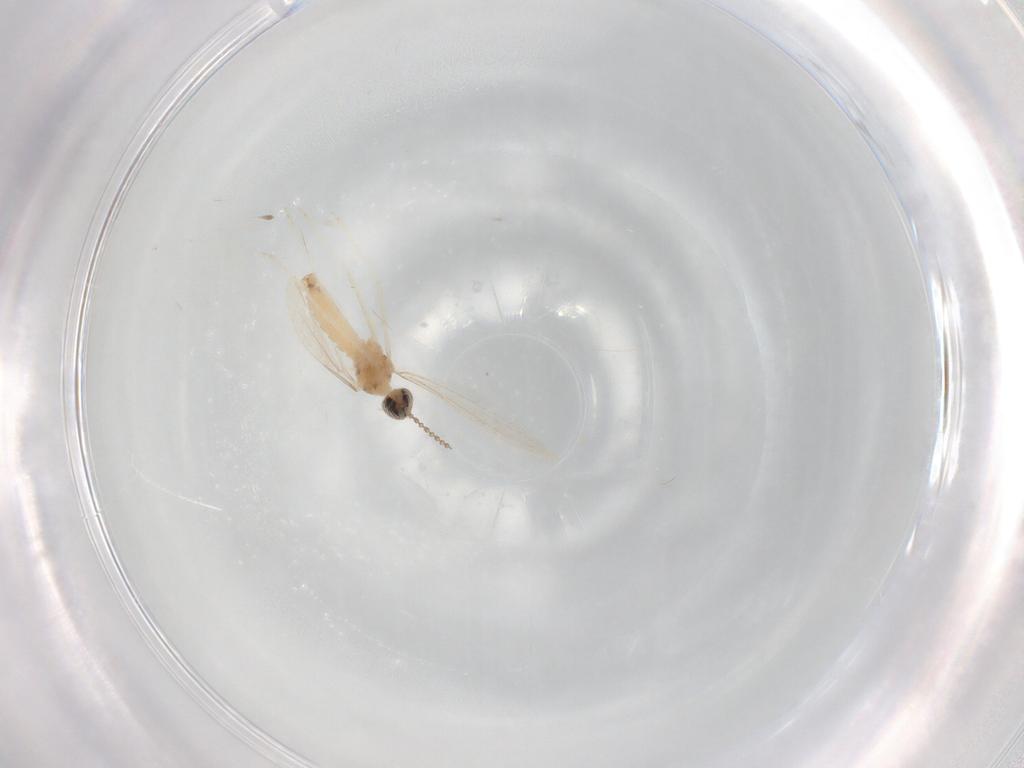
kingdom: Animalia
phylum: Arthropoda
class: Insecta
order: Diptera
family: Cecidomyiidae
